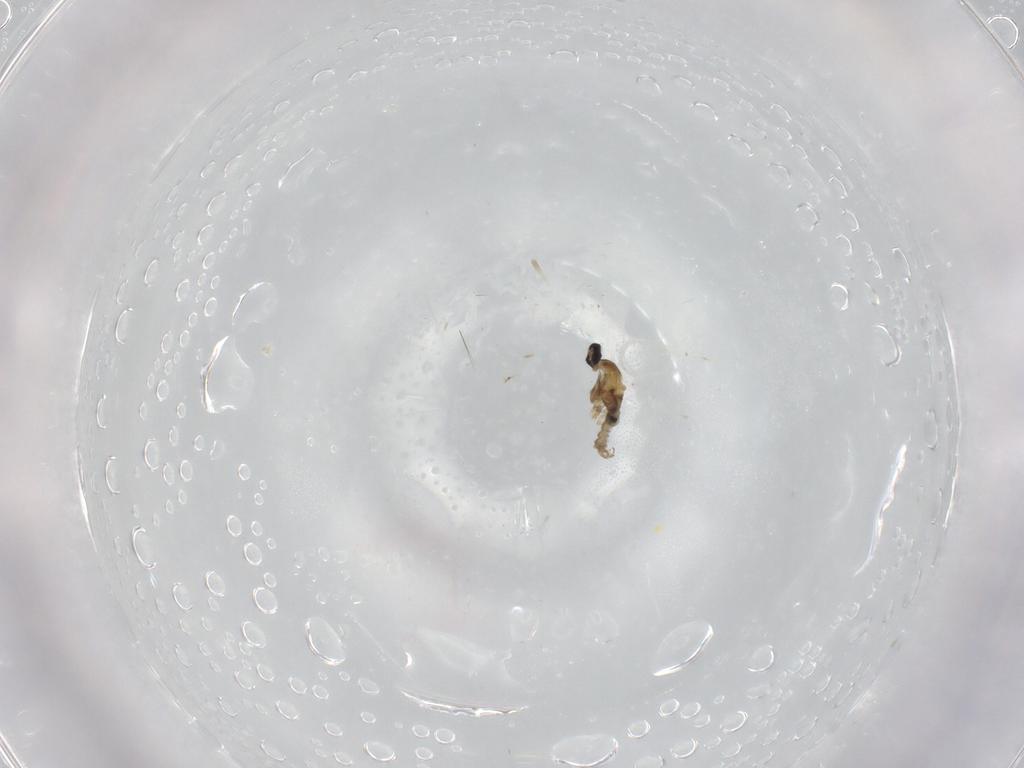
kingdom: Animalia
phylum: Arthropoda
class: Insecta
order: Diptera
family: Cecidomyiidae
